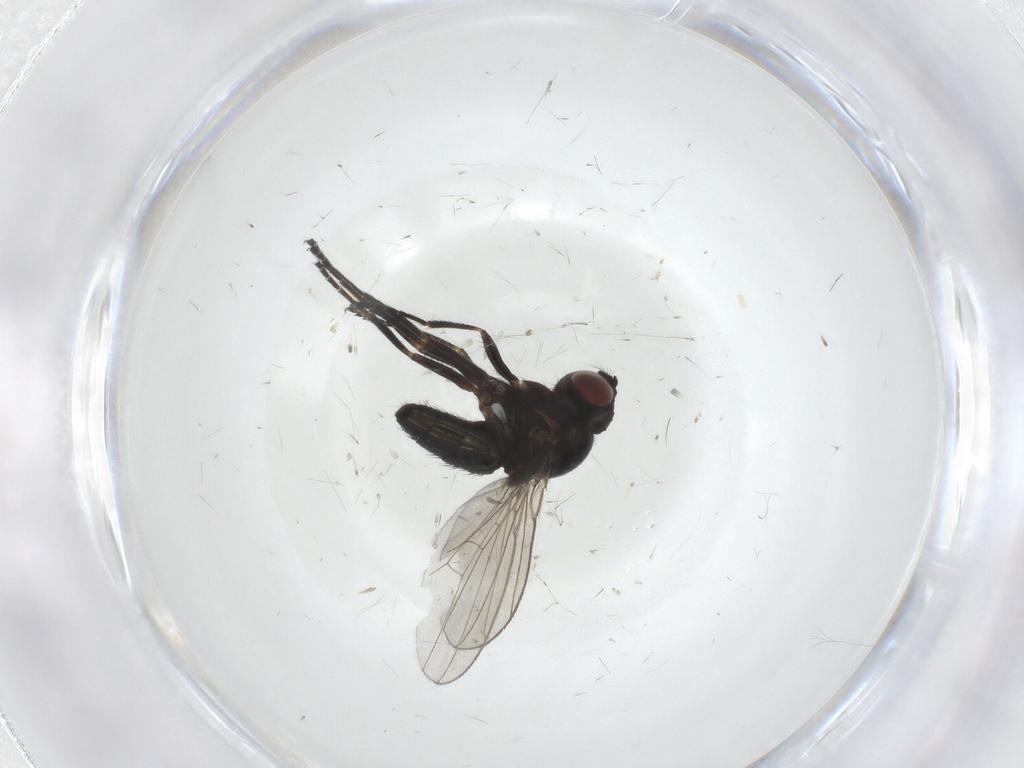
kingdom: Animalia
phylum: Arthropoda
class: Insecta
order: Diptera
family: Ephydridae
